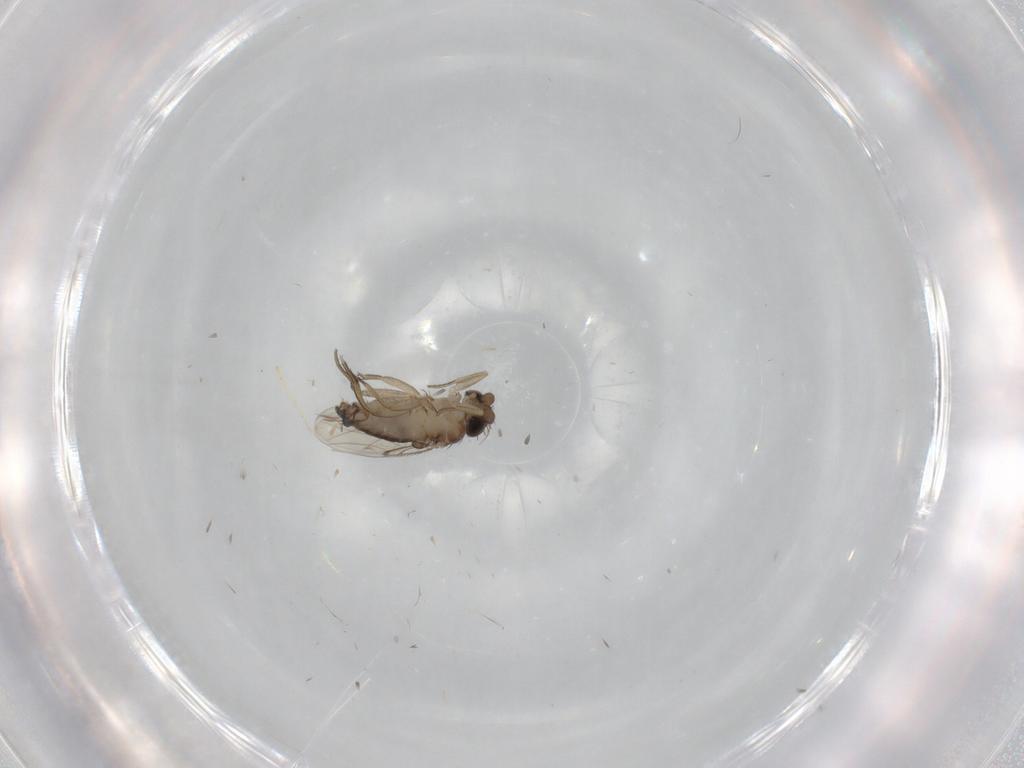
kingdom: Animalia
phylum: Arthropoda
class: Insecta
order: Diptera
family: Phoridae
